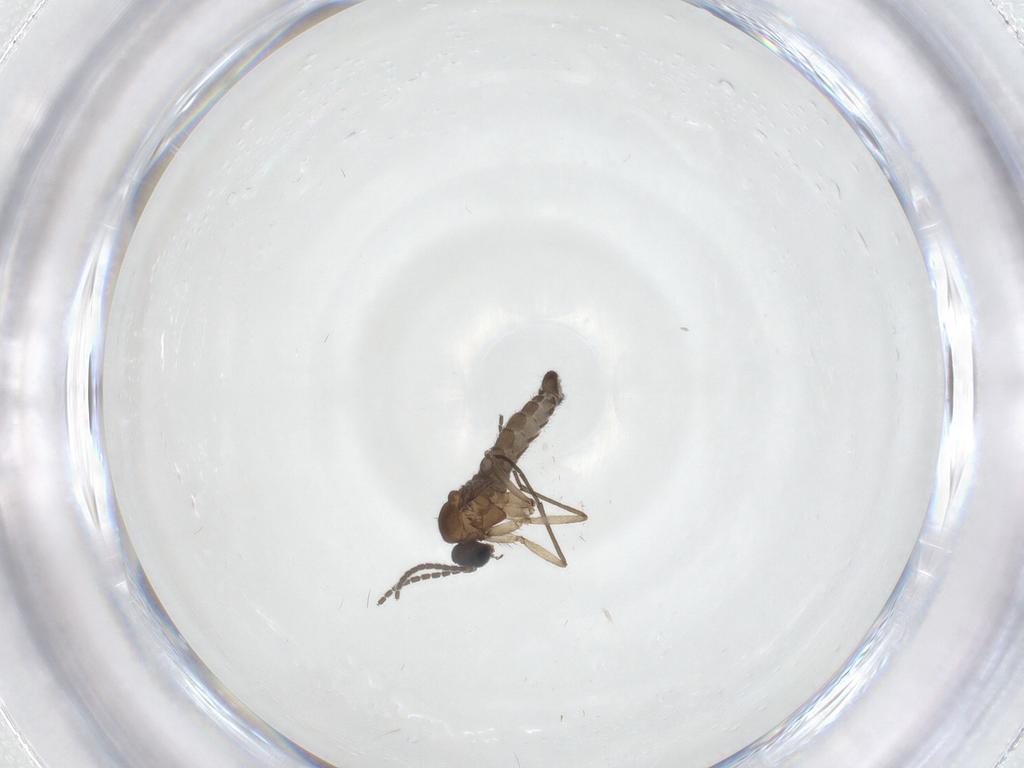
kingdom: Animalia
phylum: Arthropoda
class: Insecta
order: Diptera
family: Sciaridae
